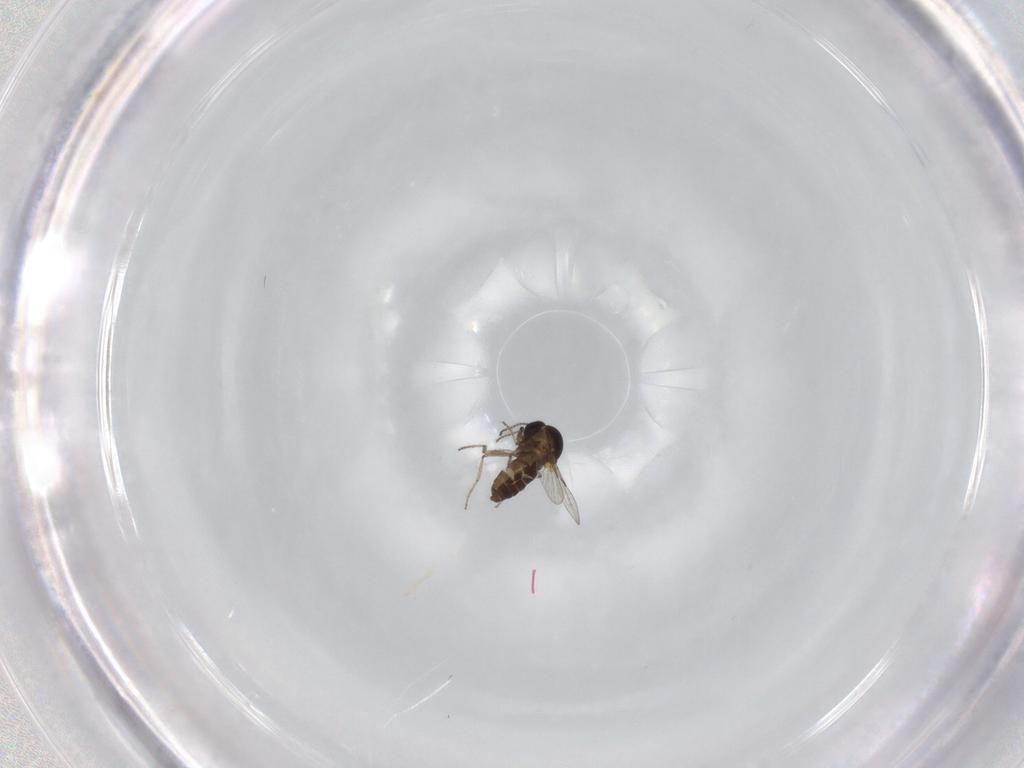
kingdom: Animalia
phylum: Arthropoda
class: Insecta
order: Diptera
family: Ceratopogonidae
